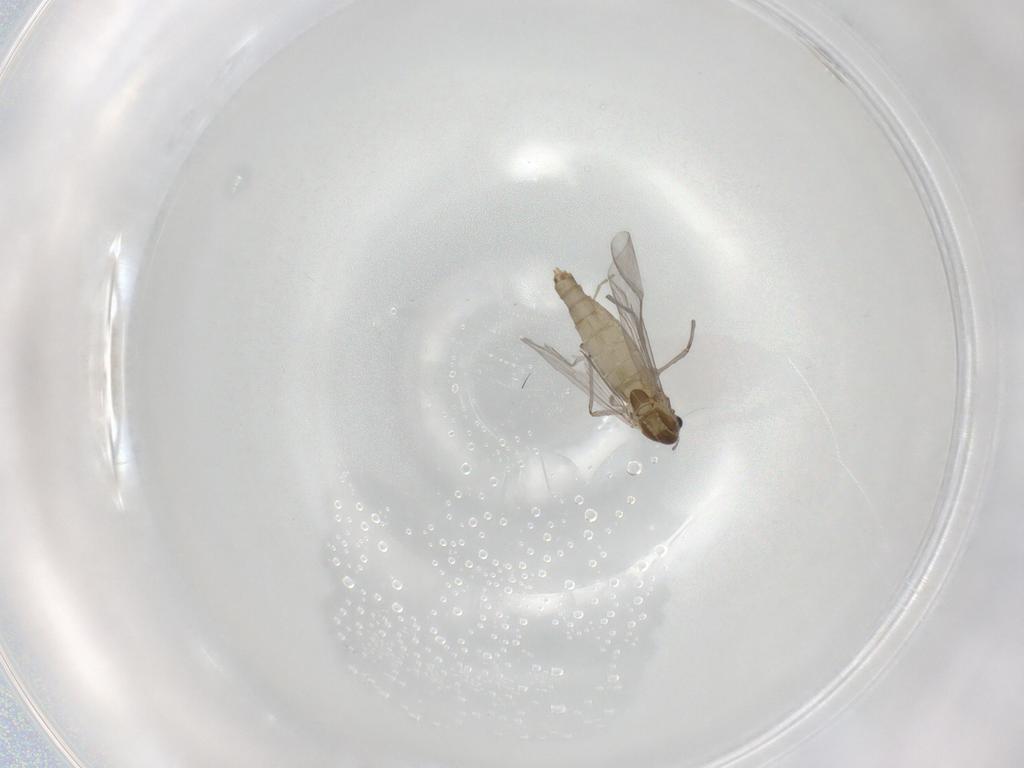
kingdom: Animalia
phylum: Arthropoda
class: Insecta
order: Diptera
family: Chironomidae
